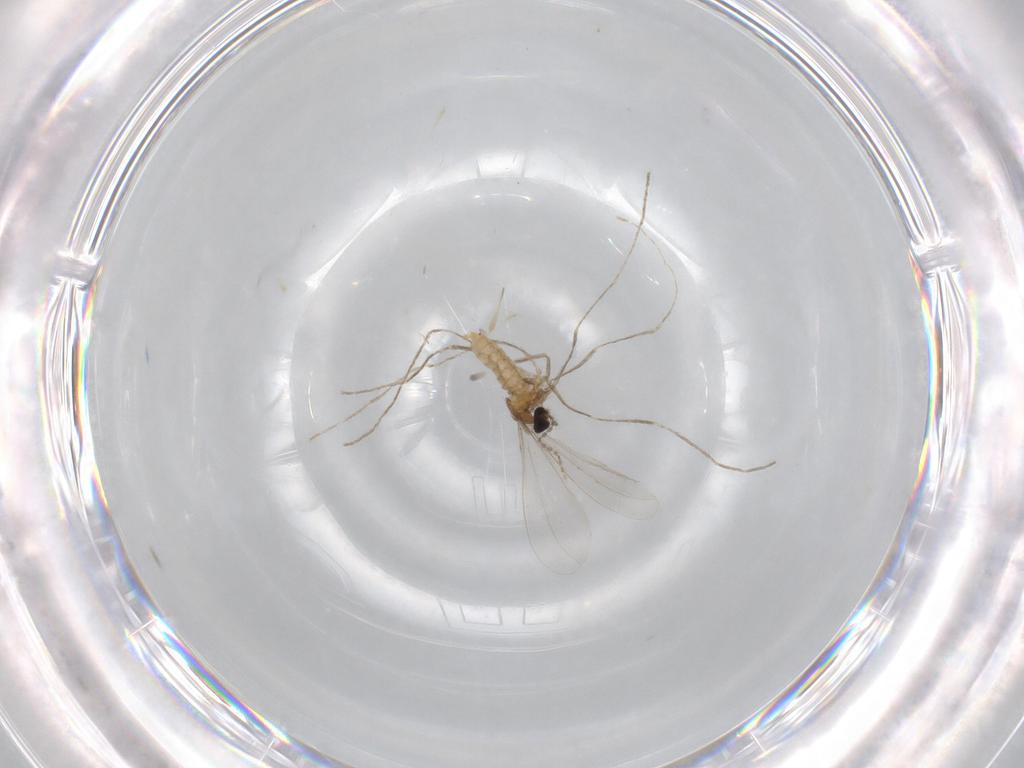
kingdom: Animalia
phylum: Arthropoda
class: Insecta
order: Diptera
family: Cecidomyiidae
